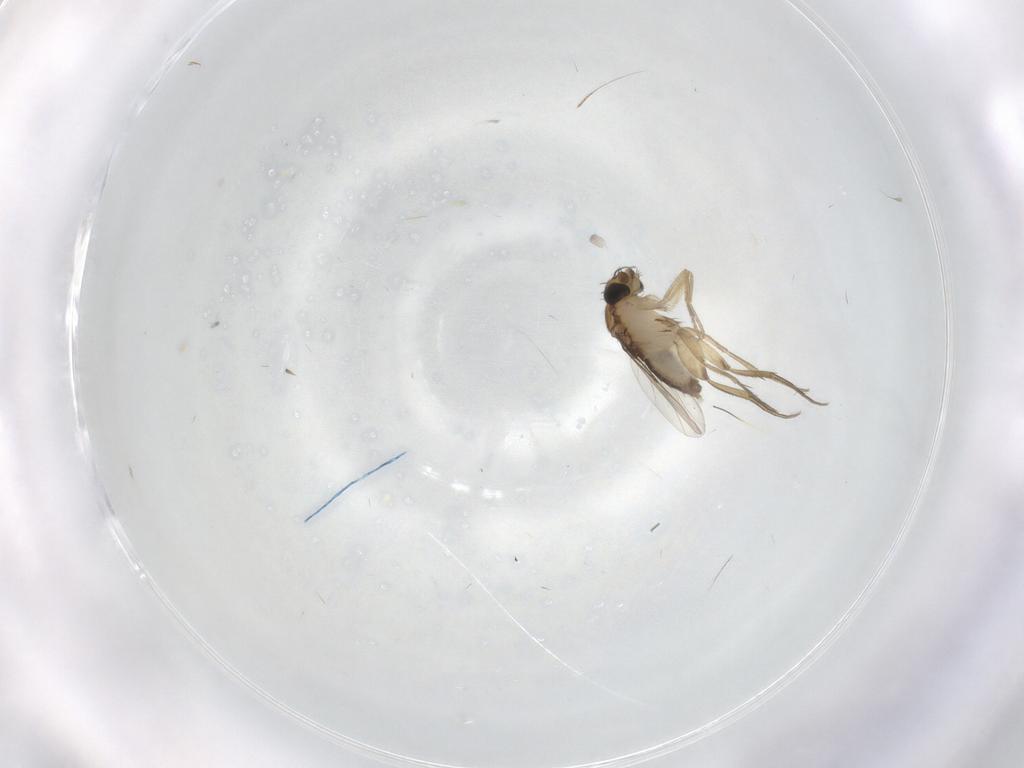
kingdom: Animalia
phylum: Arthropoda
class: Insecta
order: Diptera
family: Phoridae
